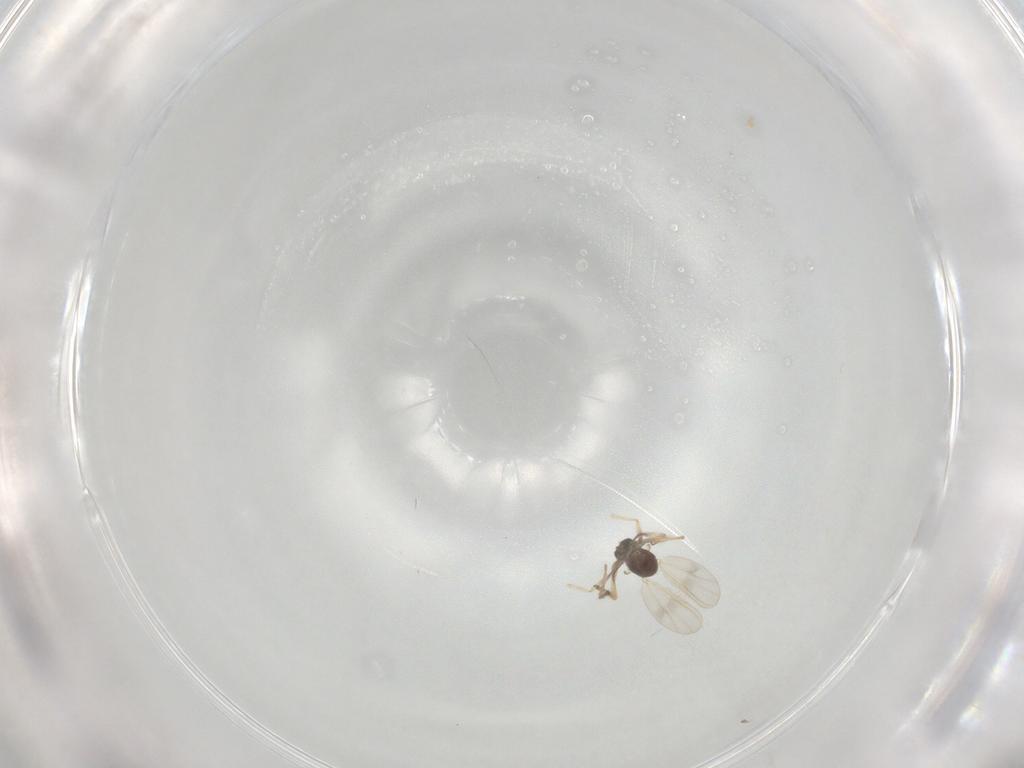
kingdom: Animalia
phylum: Arthropoda
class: Insecta
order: Diptera
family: Chironomidae
